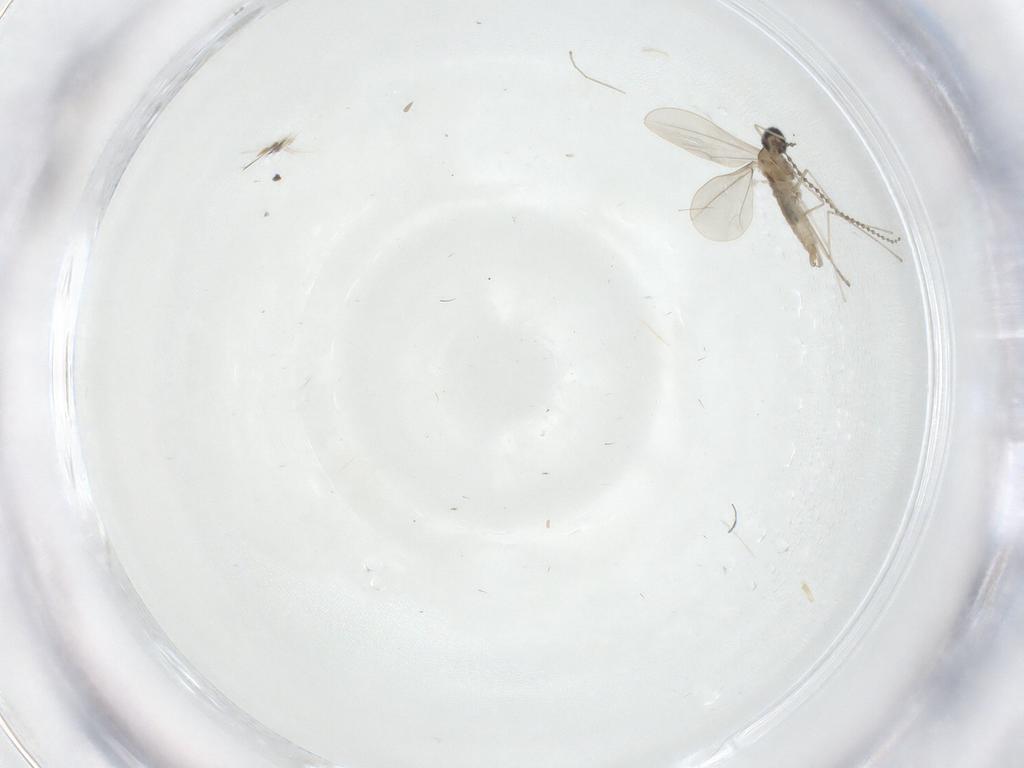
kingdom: Animalia
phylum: Arthropoda
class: Insecta
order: Diptera
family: Cecidomyiidae
